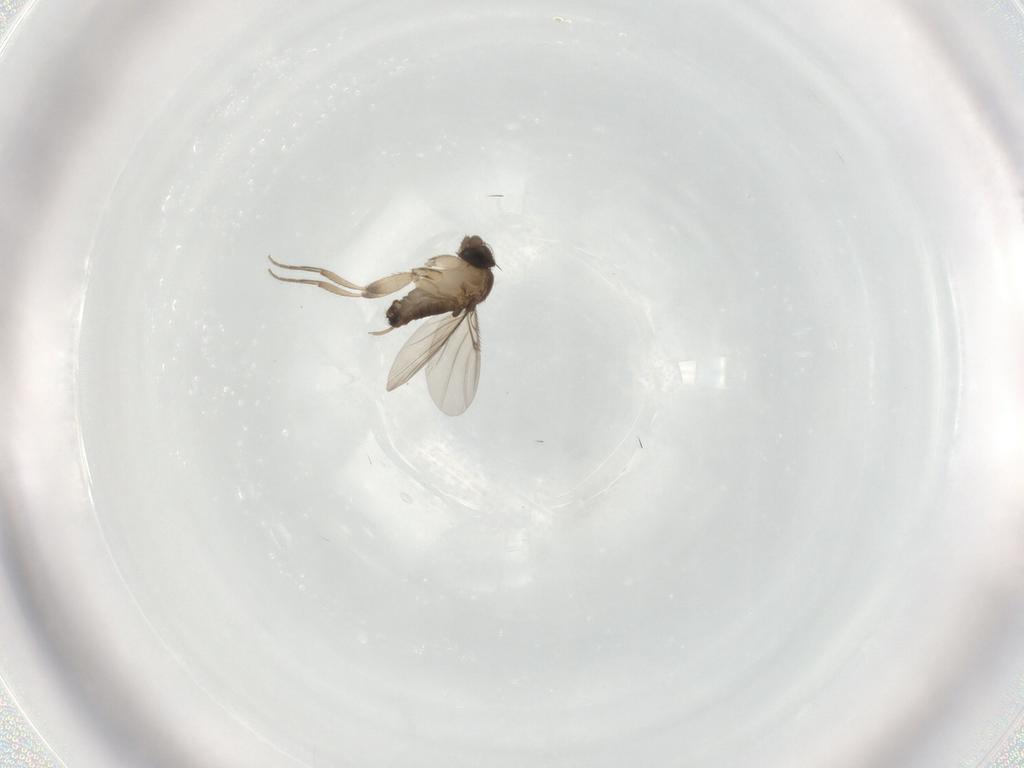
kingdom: Animalia
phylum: Arthropoda
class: Insecta
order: Diptera
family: Phoridae
